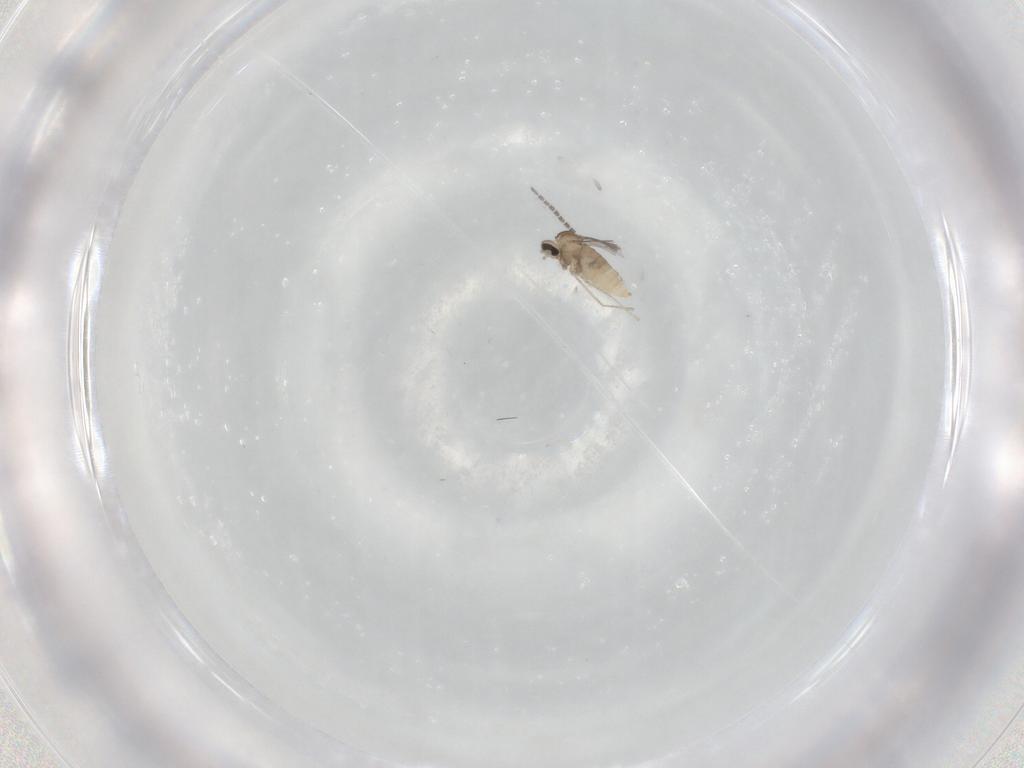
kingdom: Animalia
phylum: Arthropoda
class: Insecta
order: Diptera
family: Cecidomyiidae
